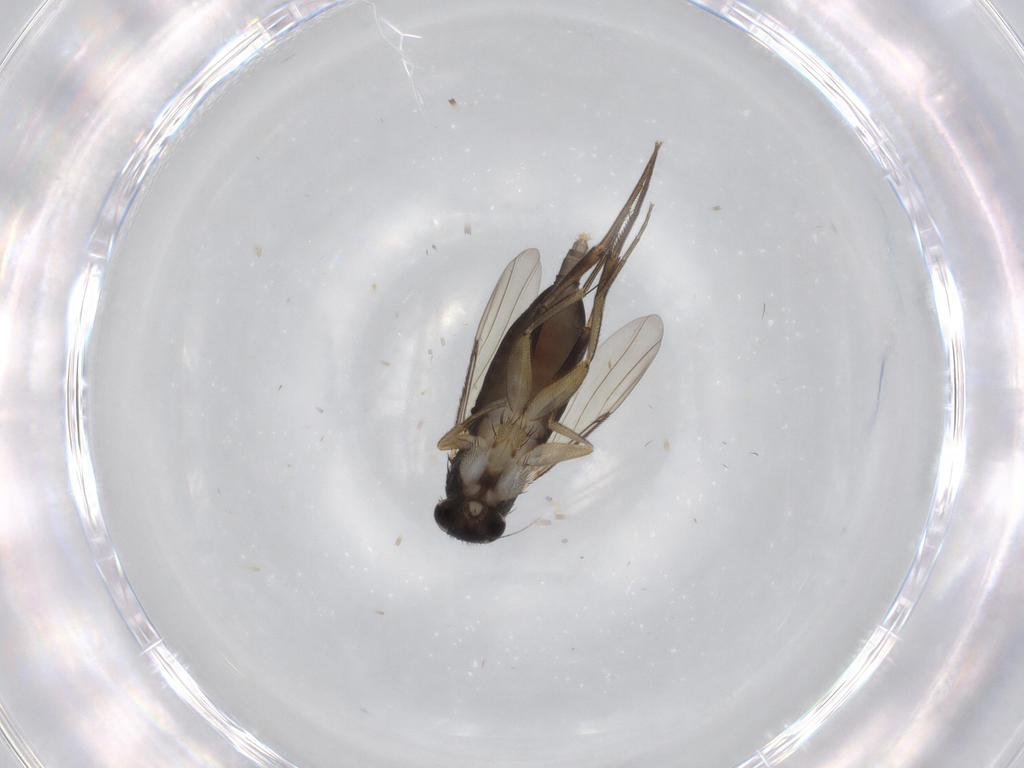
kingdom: Animalia
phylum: Arthropoda
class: Insecta
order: Diptera
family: Phoridae
